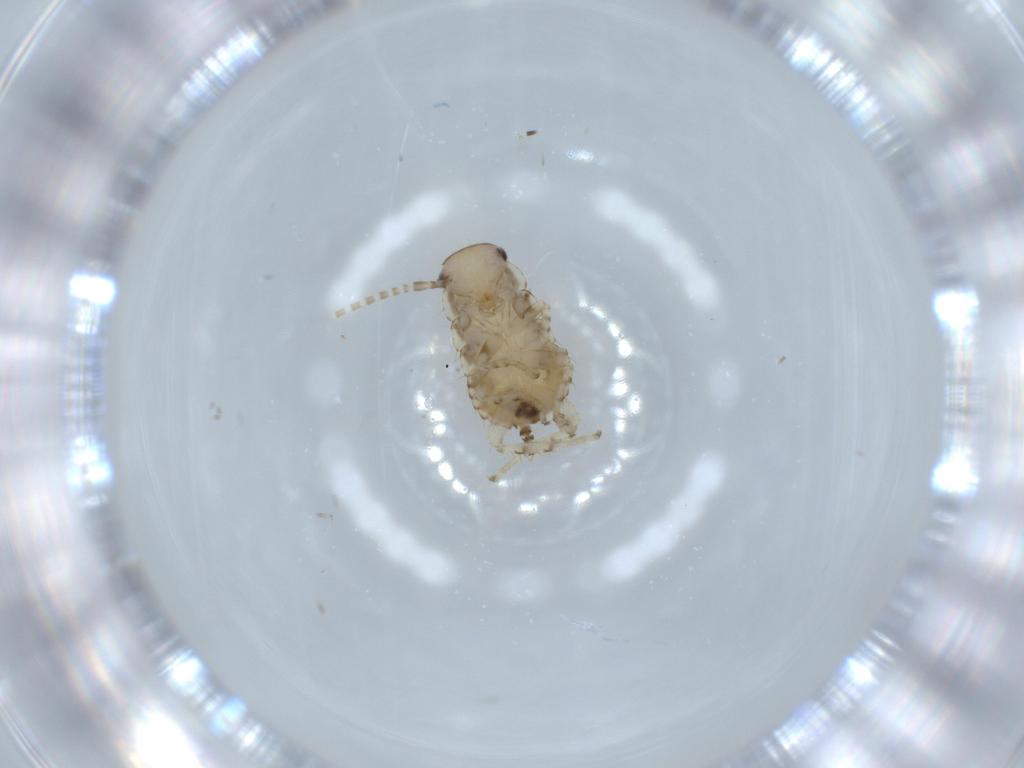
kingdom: Animalia
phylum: Arthropoda
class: Insecta
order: Blattodea
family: Ectobiidae
